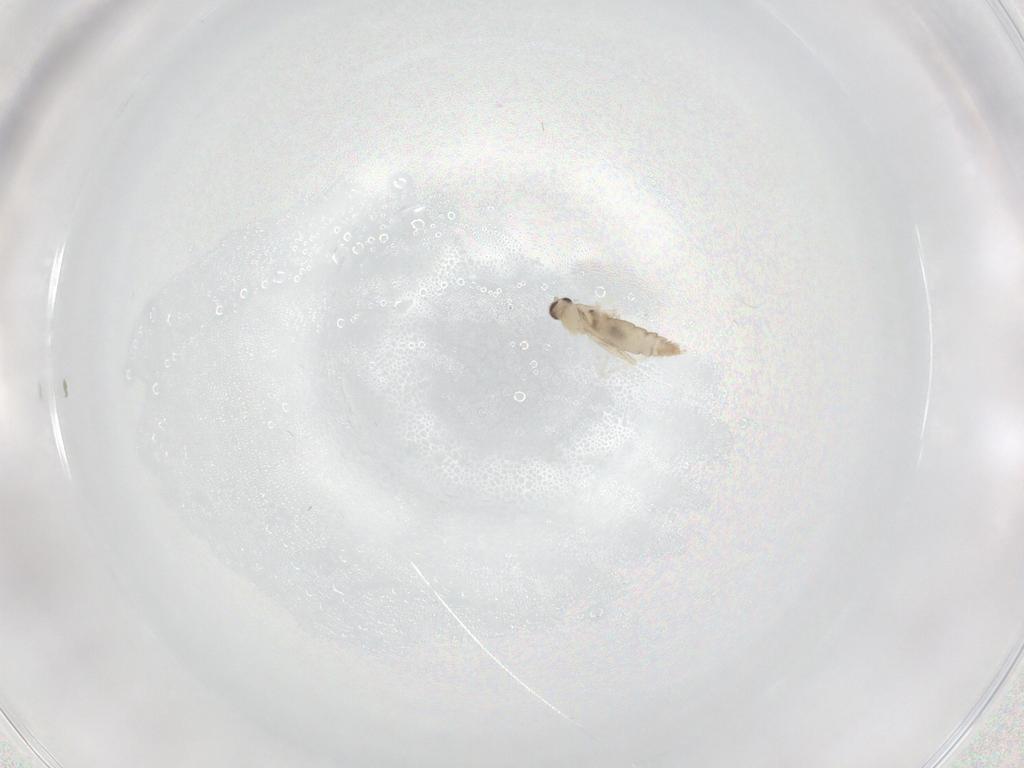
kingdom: Animalia
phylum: Arthropoda
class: Insecta
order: Diptera
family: Cecidomyiidae
